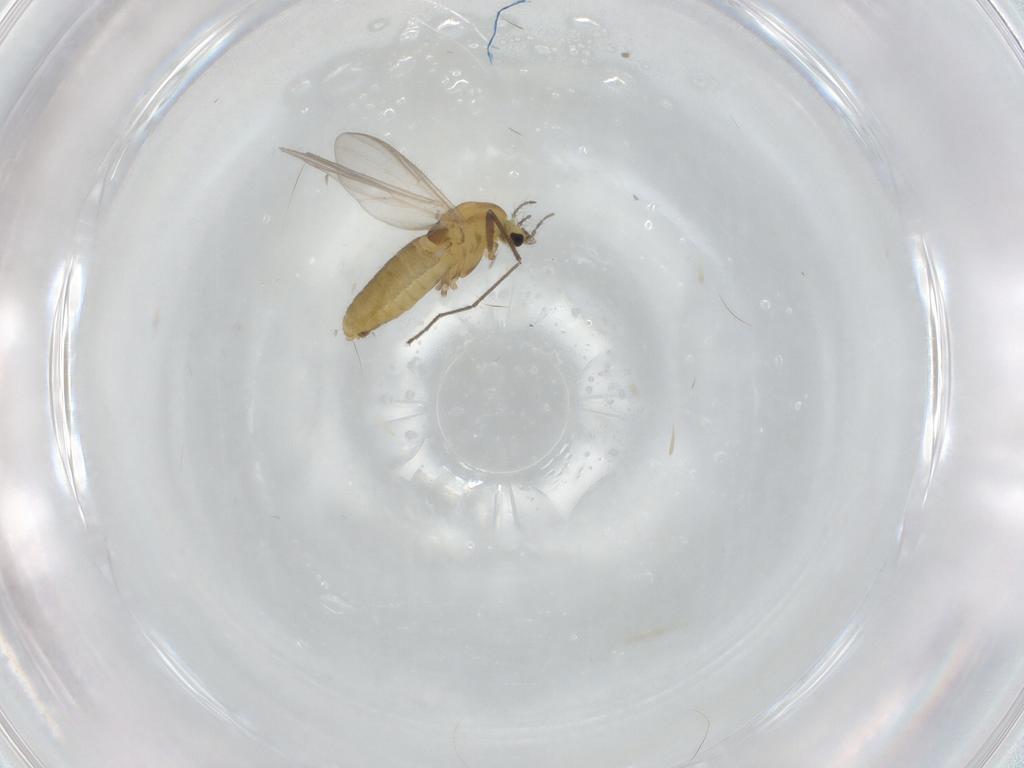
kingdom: Animalia
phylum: Arthropoda
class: Insecta
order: Diptera
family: Chironomidae
